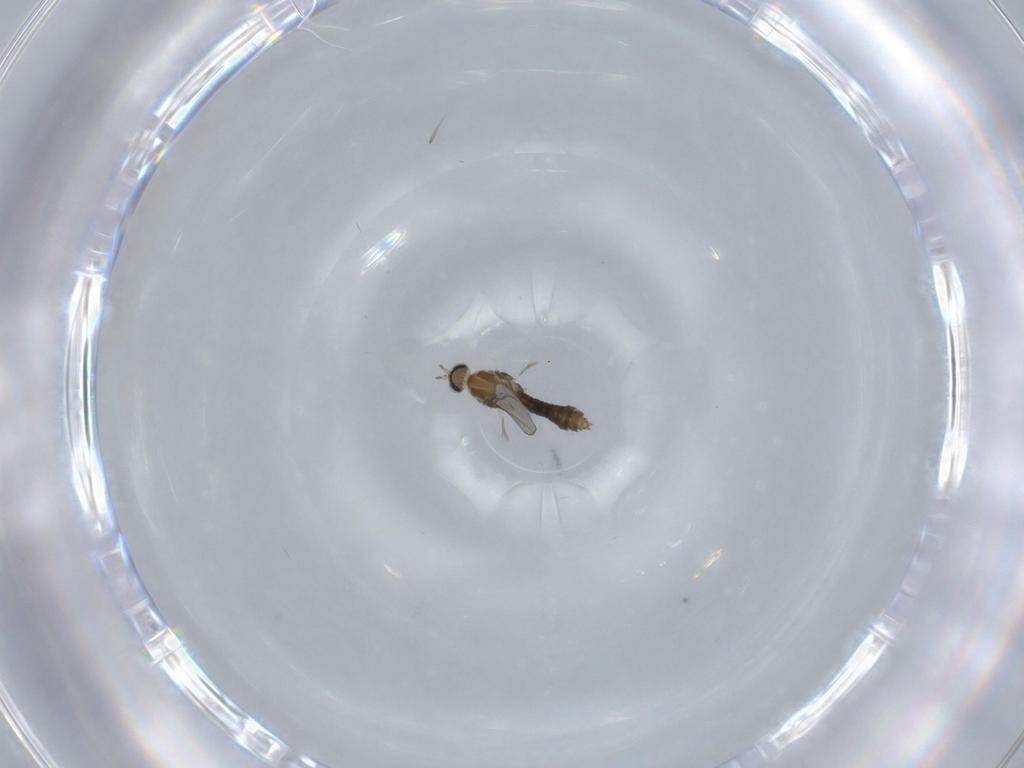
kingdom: Animalia
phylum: Arthropoda
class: Insecta
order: Diptera
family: Cecidomyiidae
